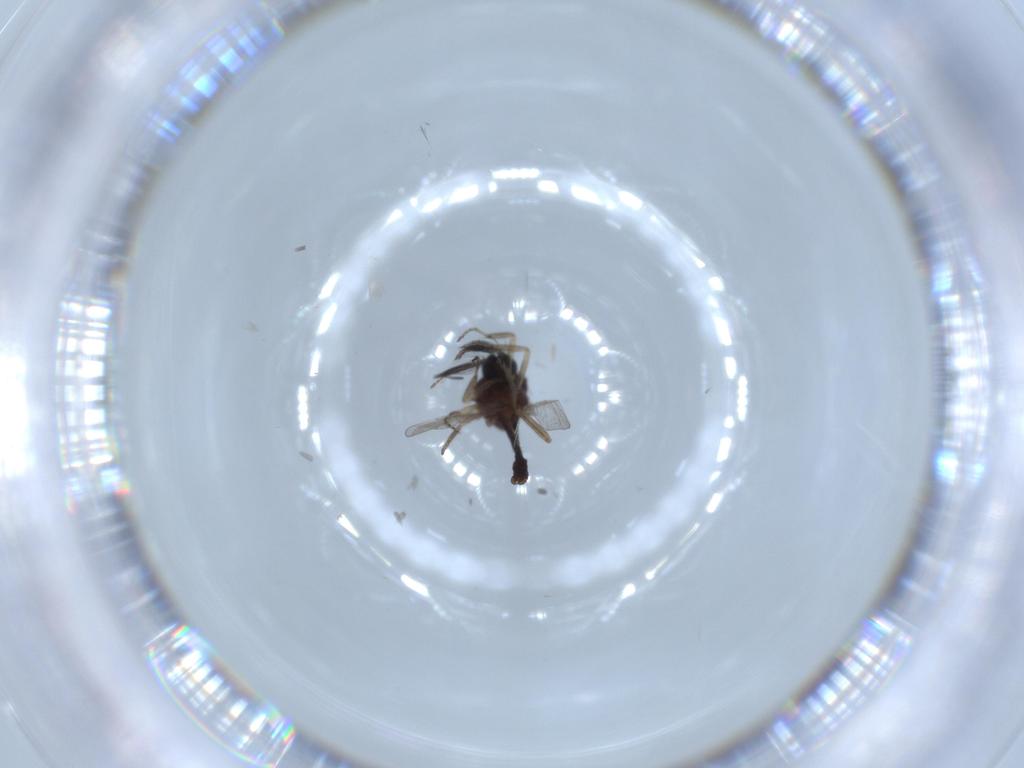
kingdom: Animalia
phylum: Arthropoda
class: Insecta
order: Diptera
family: Ceratopogonidae
